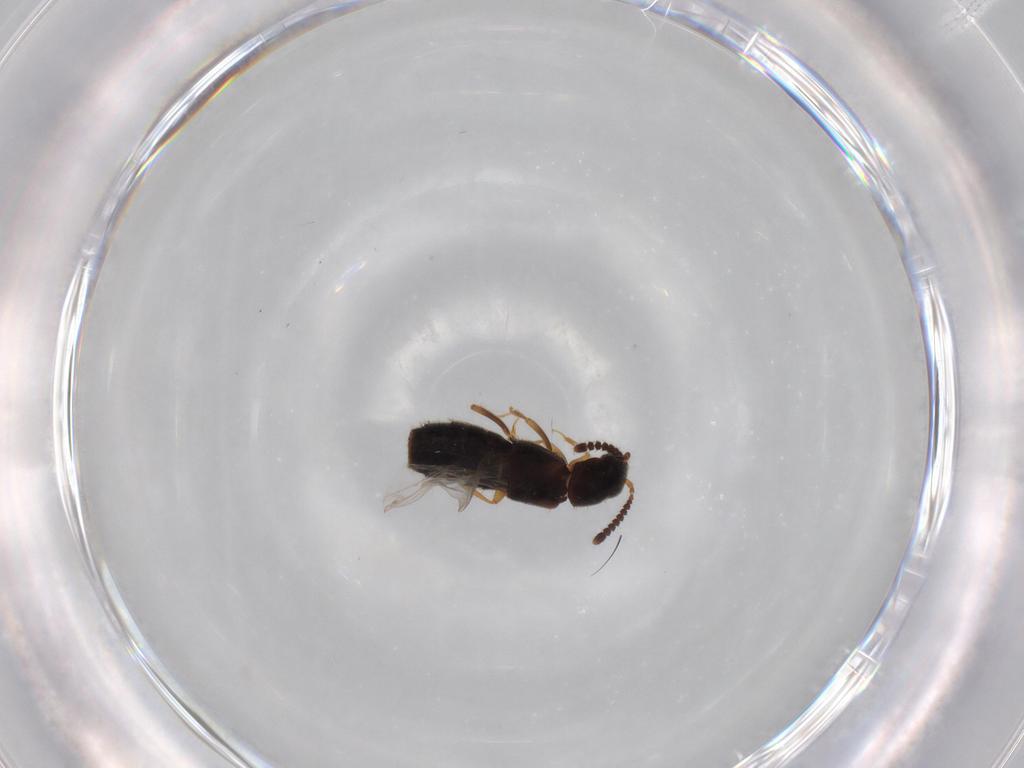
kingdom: Animalia
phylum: Arthropoda
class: Insecta
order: Coleoptera
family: Staphylinidae
